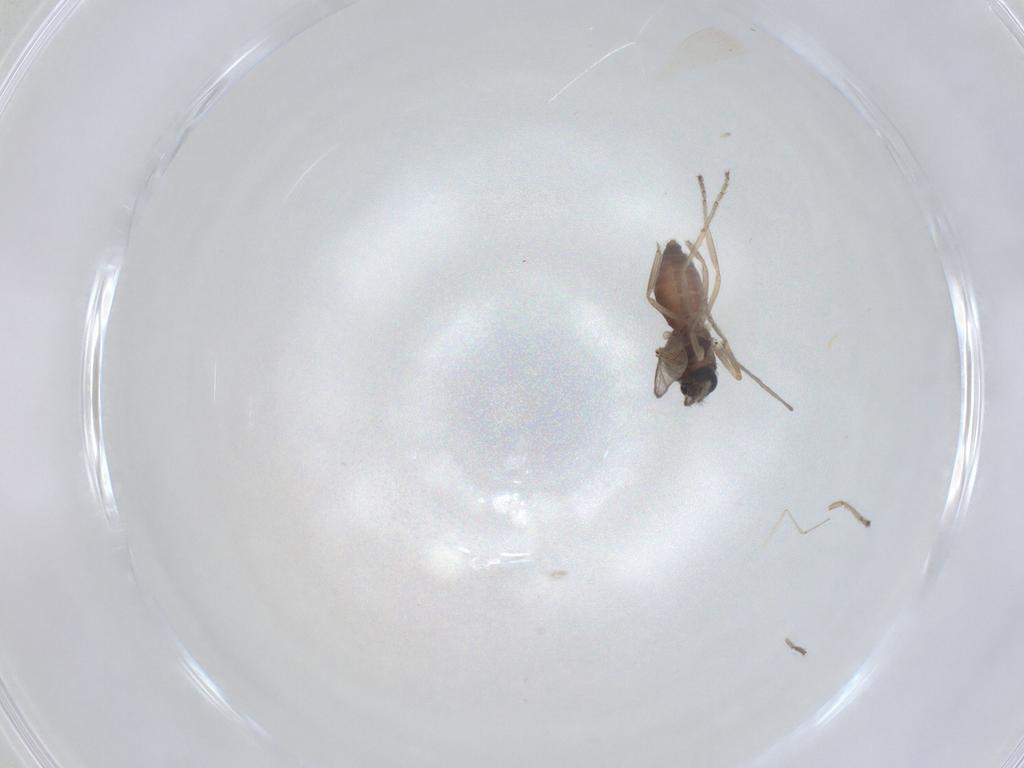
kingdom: Animalia
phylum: Arthropoda
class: Insecta
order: Diptera
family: Ceratopogonidae
